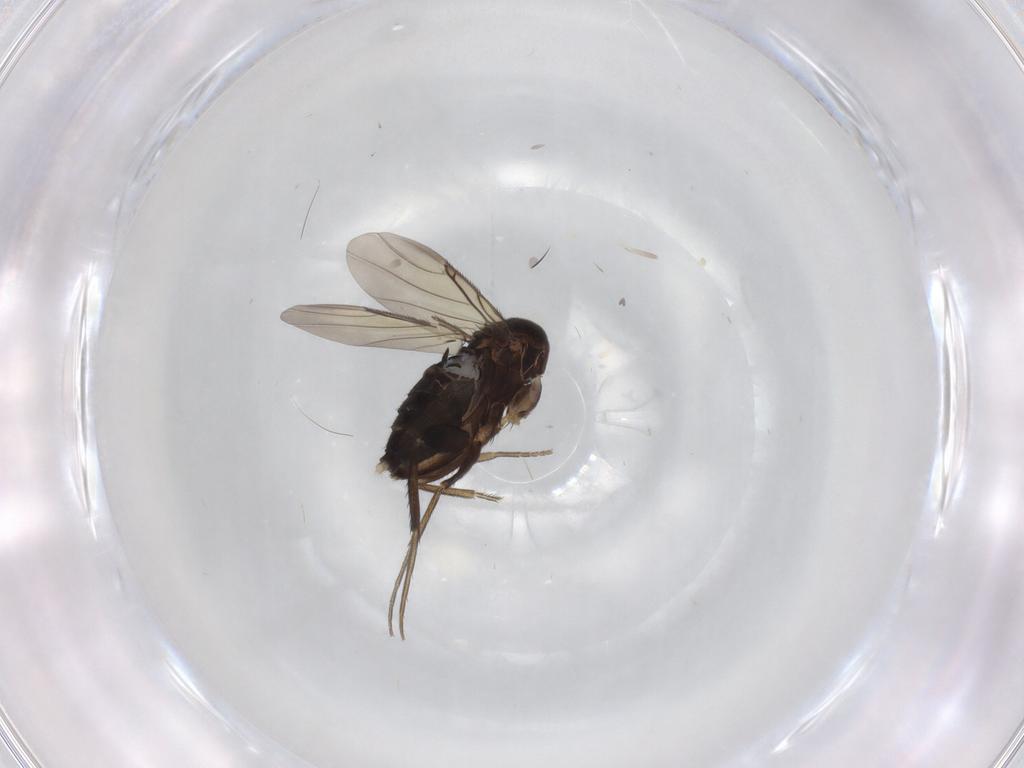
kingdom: Animalia
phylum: Arthropoda
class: Insecta
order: Diptera
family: Phoridae
